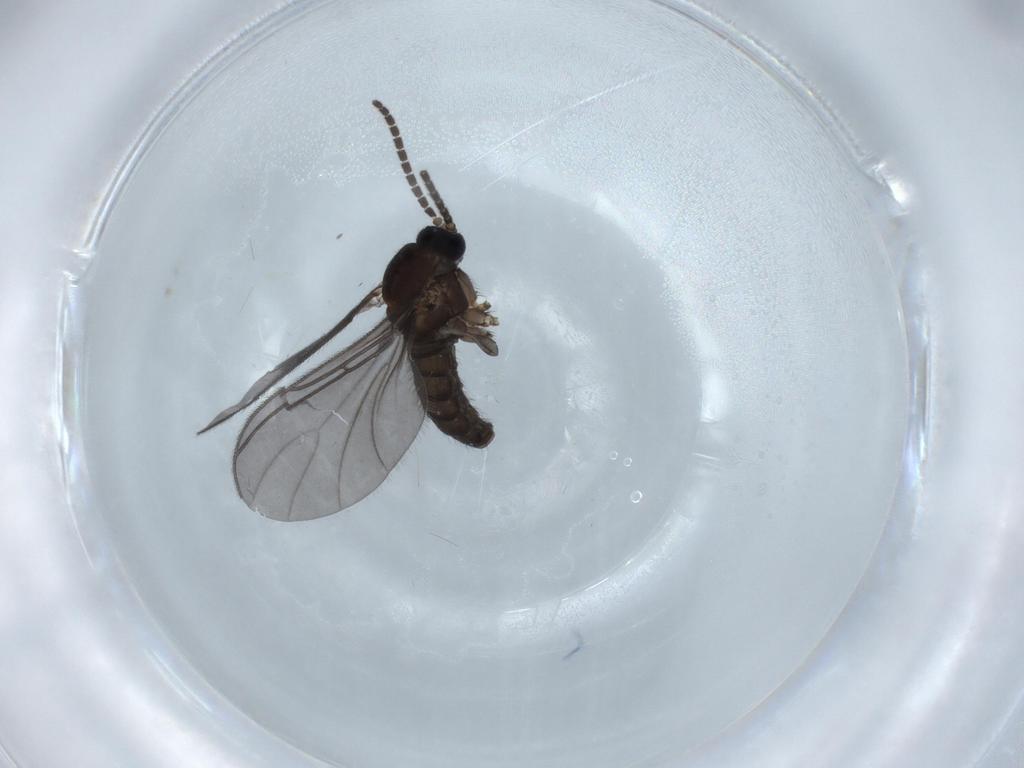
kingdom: Animalia
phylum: Arthropoda
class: Insecta
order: Diptera
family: Sciaridae
